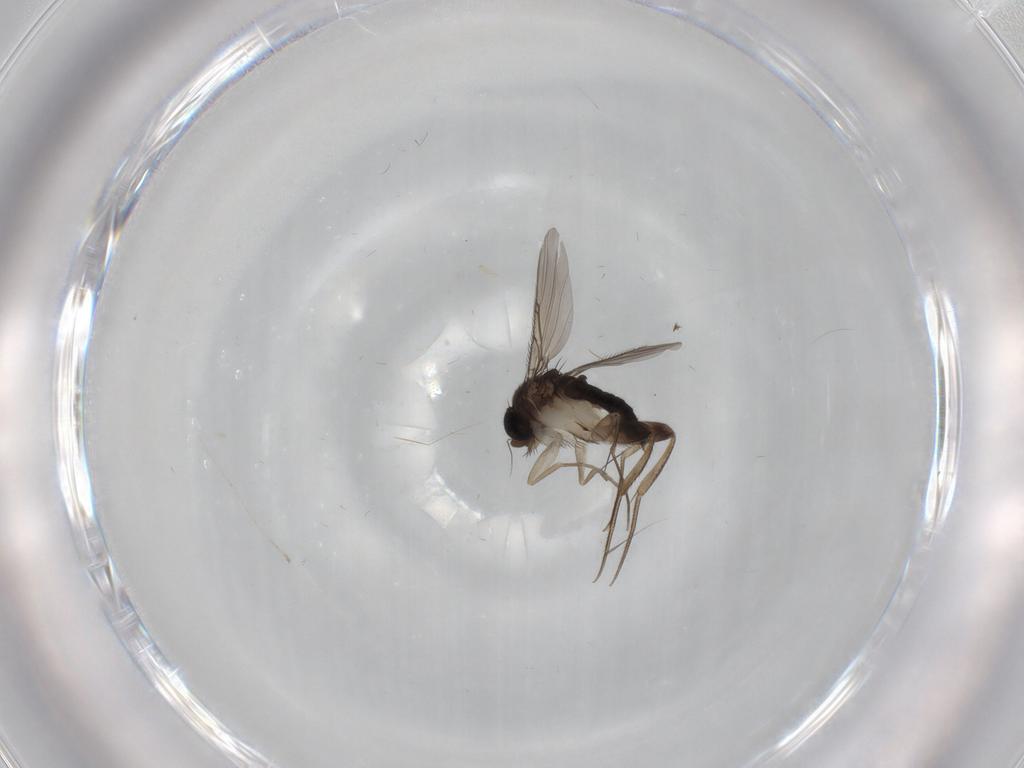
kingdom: Animalia
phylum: Arthropoda
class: Insecta
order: Diptera
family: Phoridae
